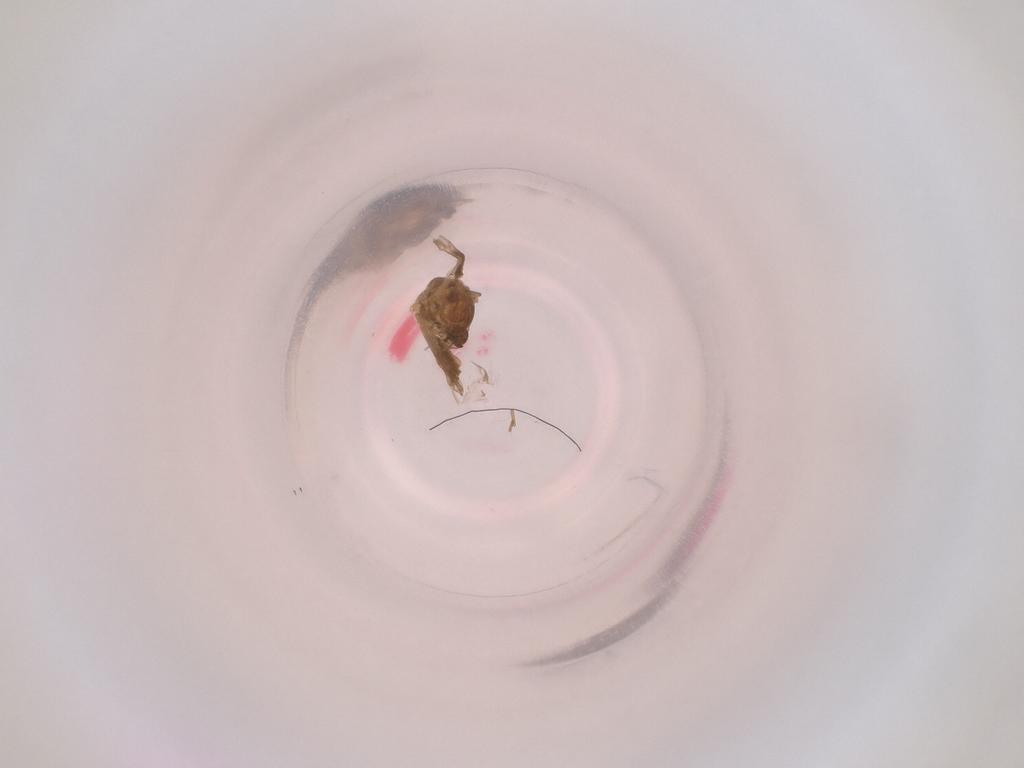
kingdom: Animalia
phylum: Arthropoda
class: Insecta
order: Diptera
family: Cecidomyiidae
